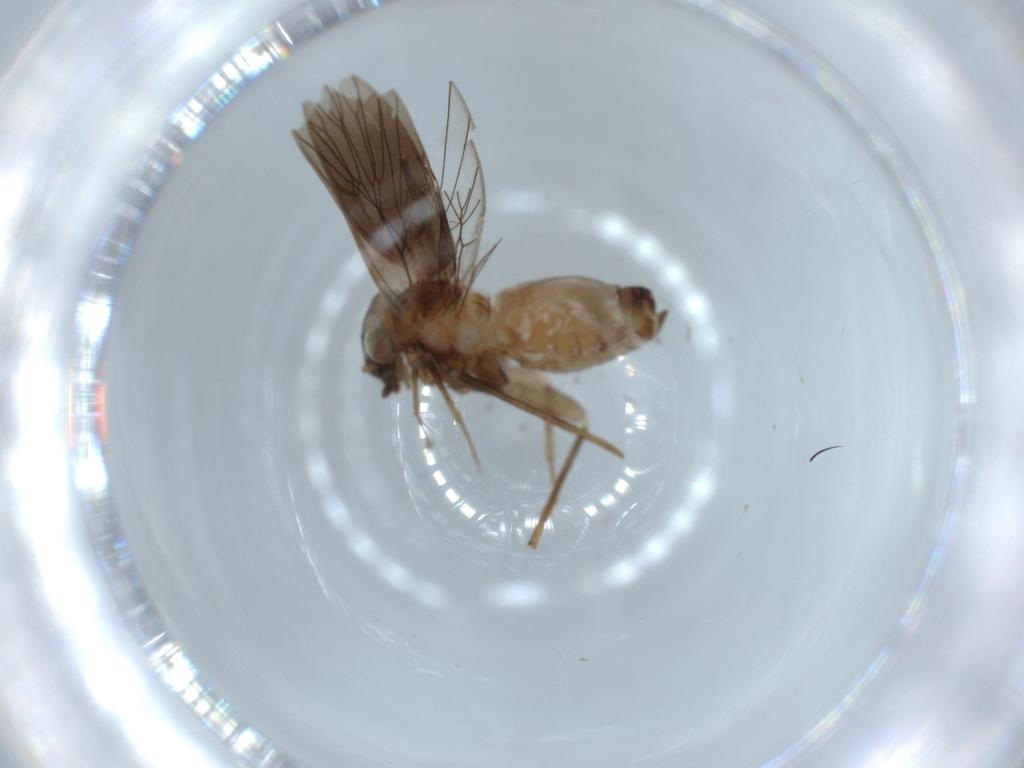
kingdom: Animalia
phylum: Arthropoda
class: Insecta
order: Psocodea
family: Lepidopsocidae
